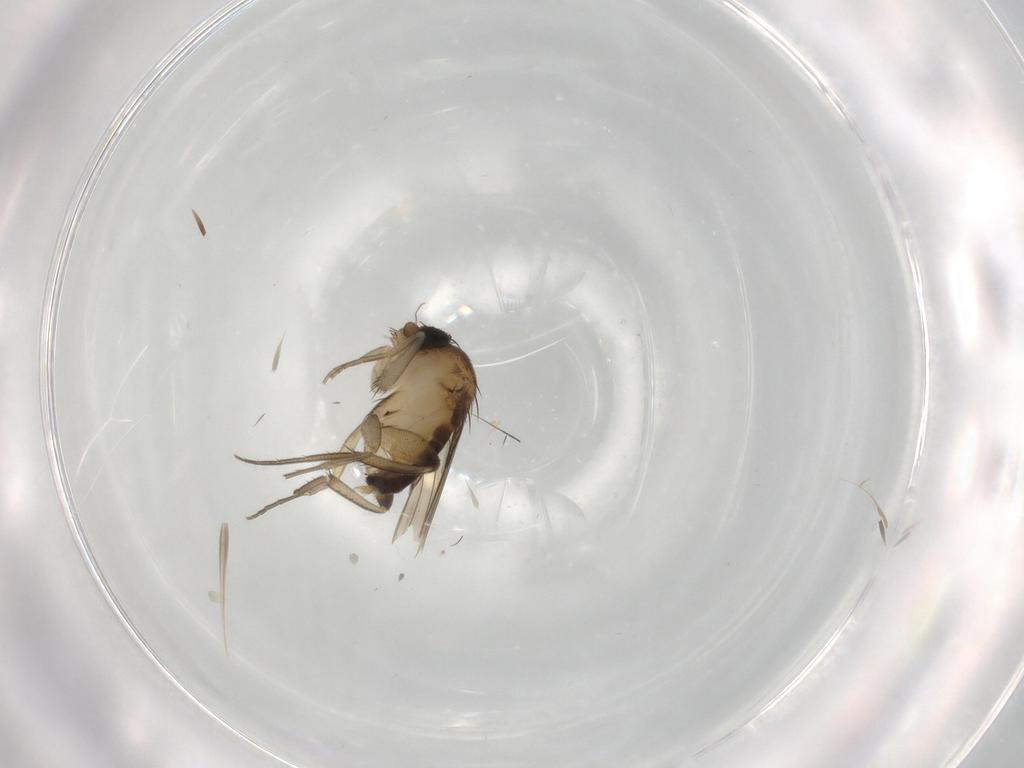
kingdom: Animalia
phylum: Arthropoda
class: Insecta
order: Diptera
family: Phoridae
